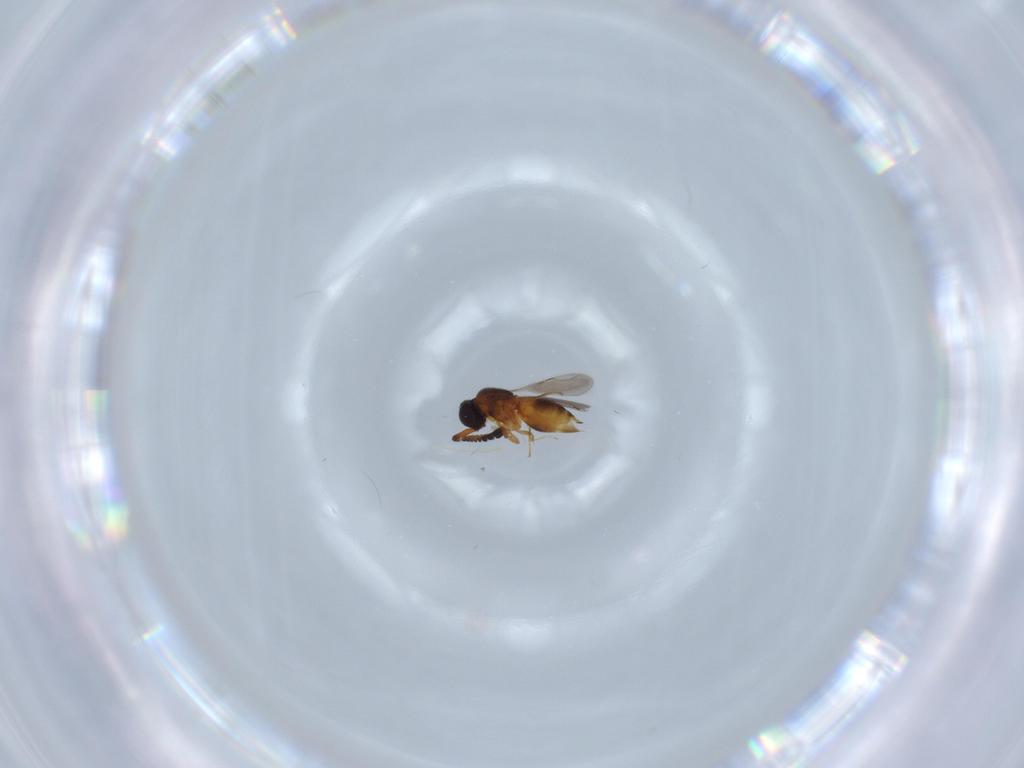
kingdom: Animalia
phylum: Arthropoda
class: Insecta
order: Hymenoptera
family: Ceraphronidae
